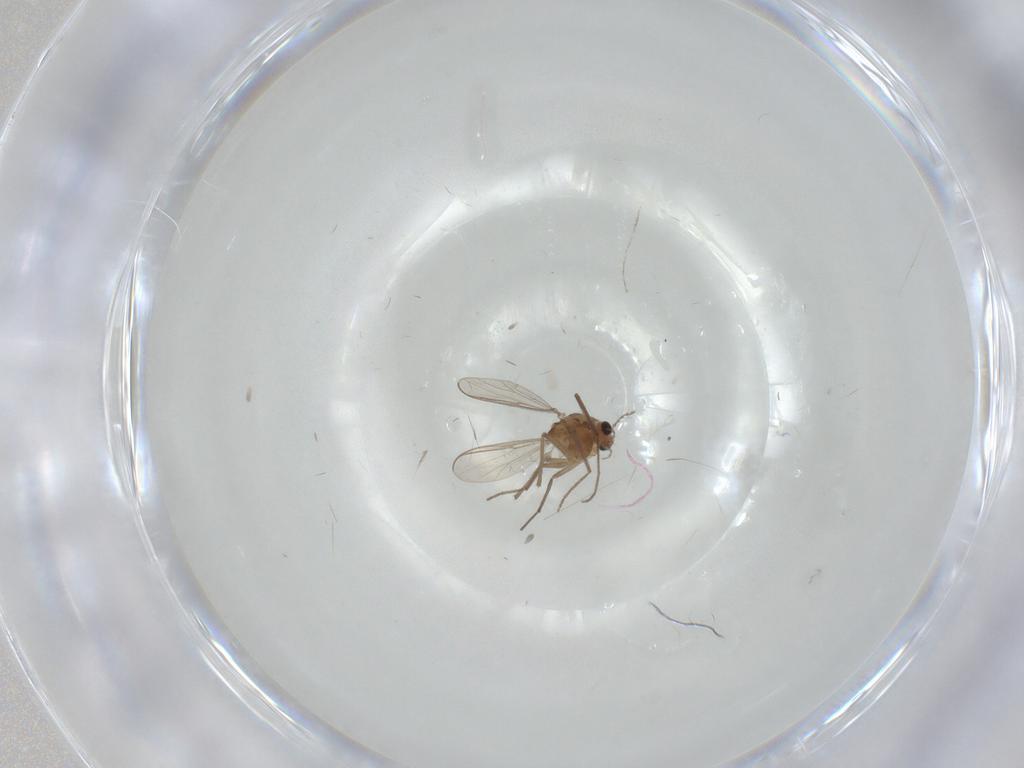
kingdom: Animalia
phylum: Arthropoda
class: Insecta
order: Diptera
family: Chironomidae
